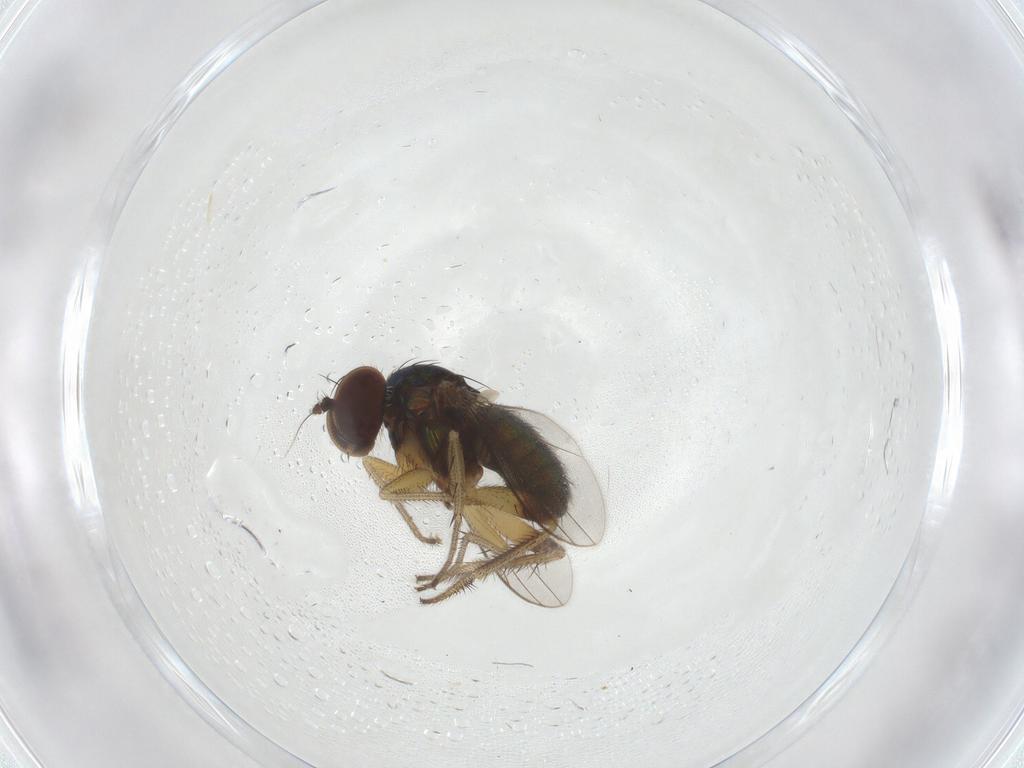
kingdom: Animalia
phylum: Arthropoda
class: Insecta
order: Diptera
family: Dolichopodidae
